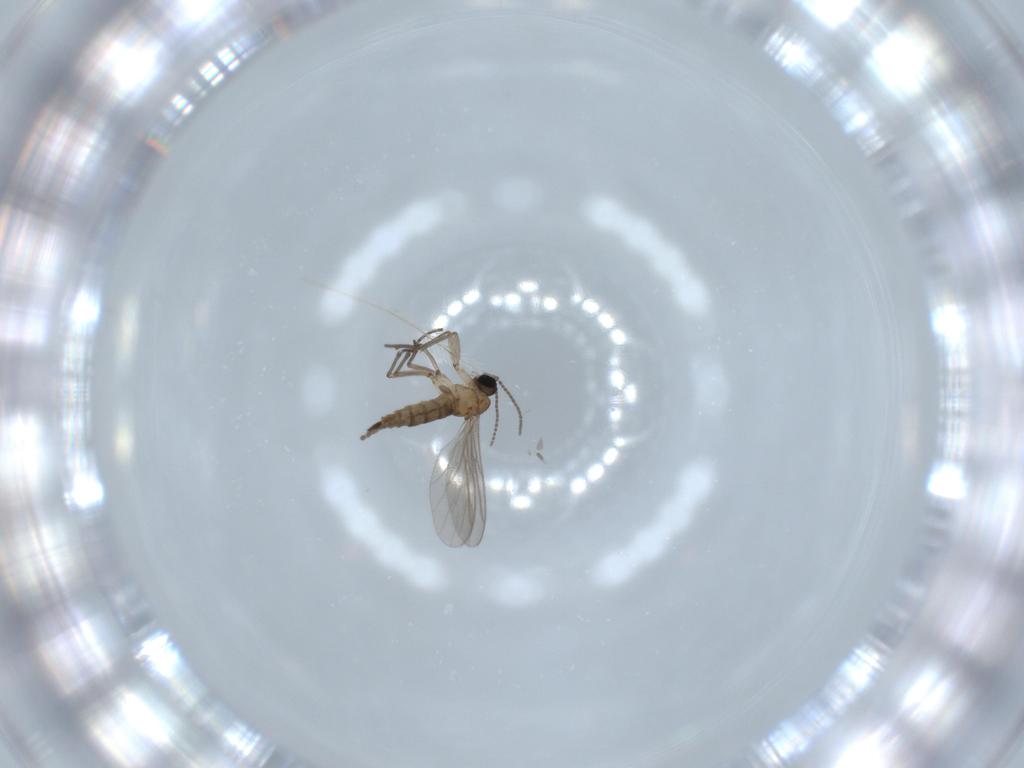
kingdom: Animalia
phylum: Arthropoda
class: Insecta
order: Diptera
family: Sciaridae
